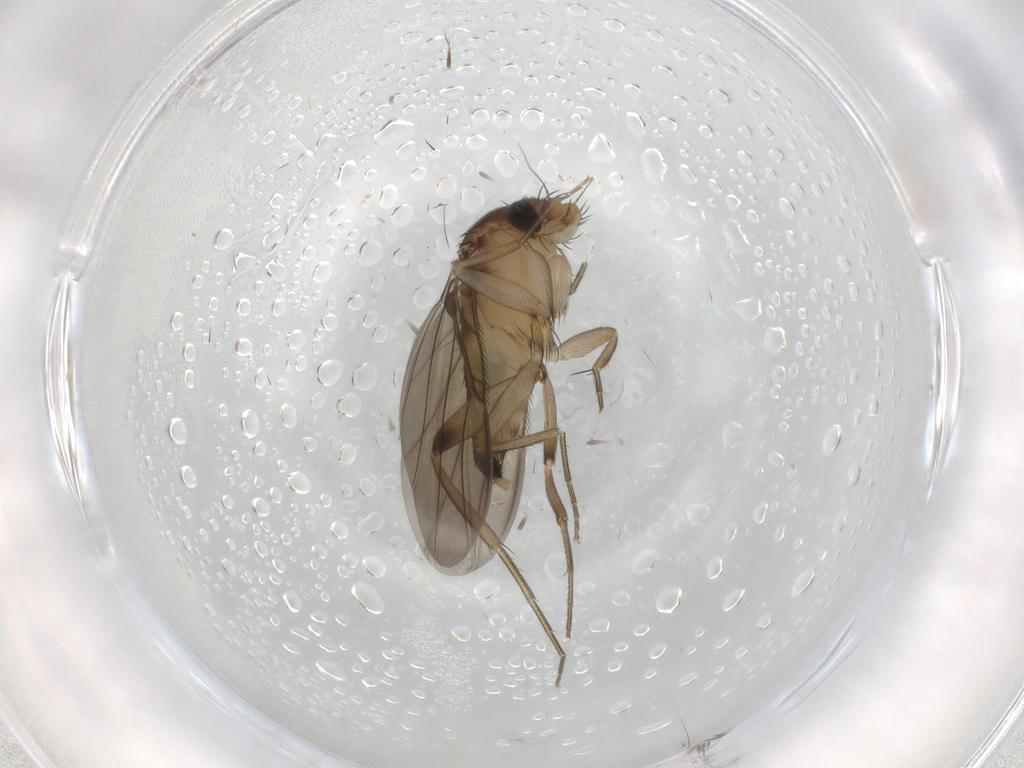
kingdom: Animalia
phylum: Arthropoda
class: Insecta
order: Diptera
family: Phoridae
